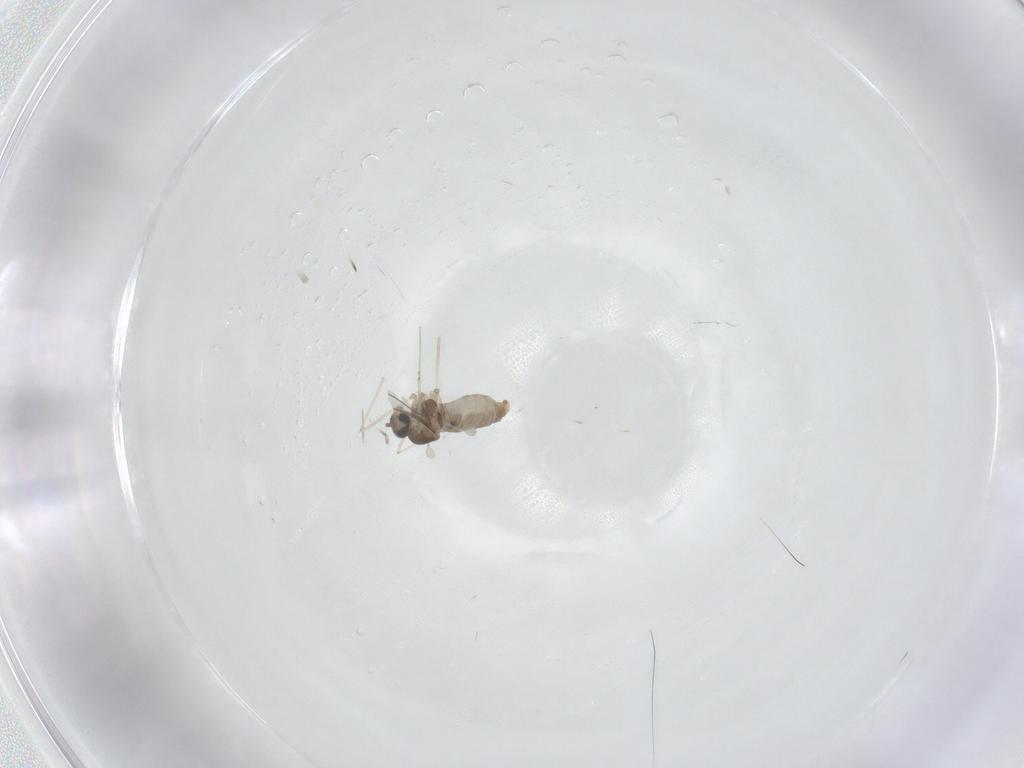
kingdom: Animalia
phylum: Arthropoda
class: Insecta
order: Diptera
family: Cecidomyiidae
